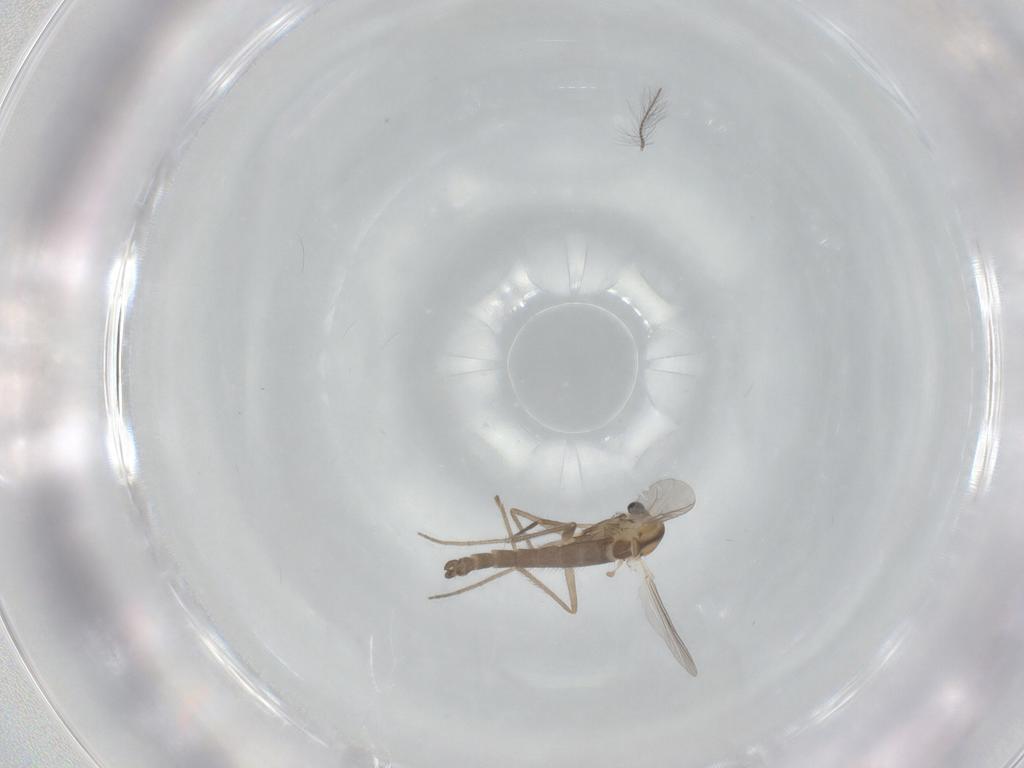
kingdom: Animalia
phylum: Arthropoda
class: Insecta
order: Diptera
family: Chironomidae
